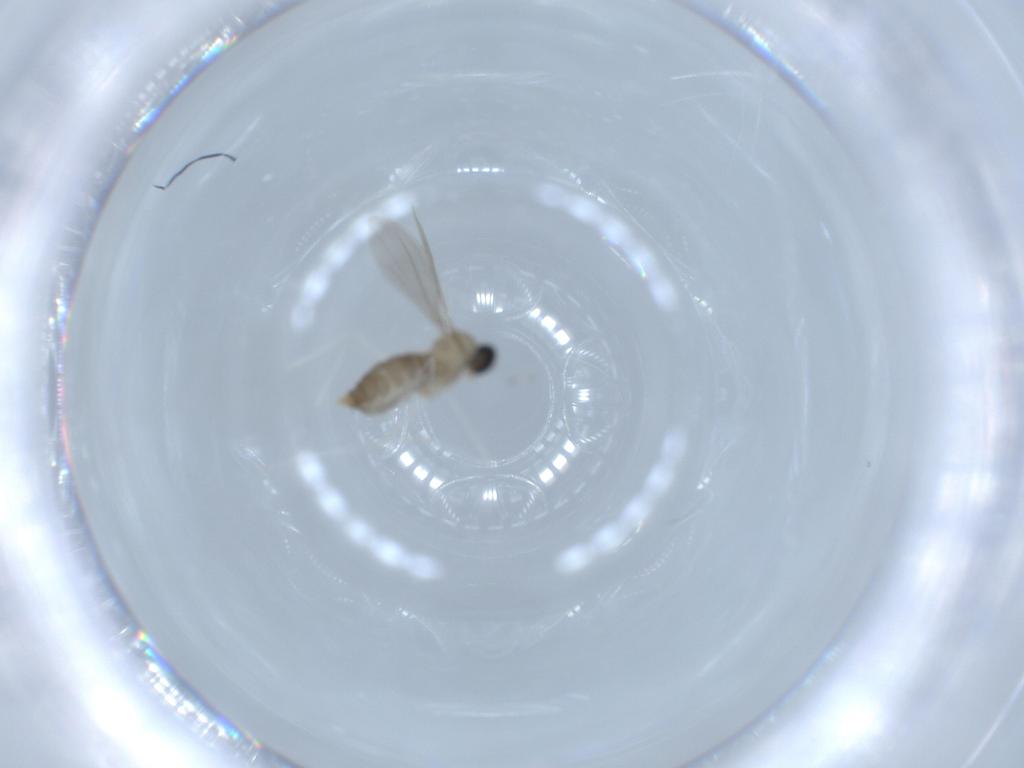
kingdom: Animalia
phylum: Arthropoda
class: Insecta
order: Diptera
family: Cecidomyiidae
